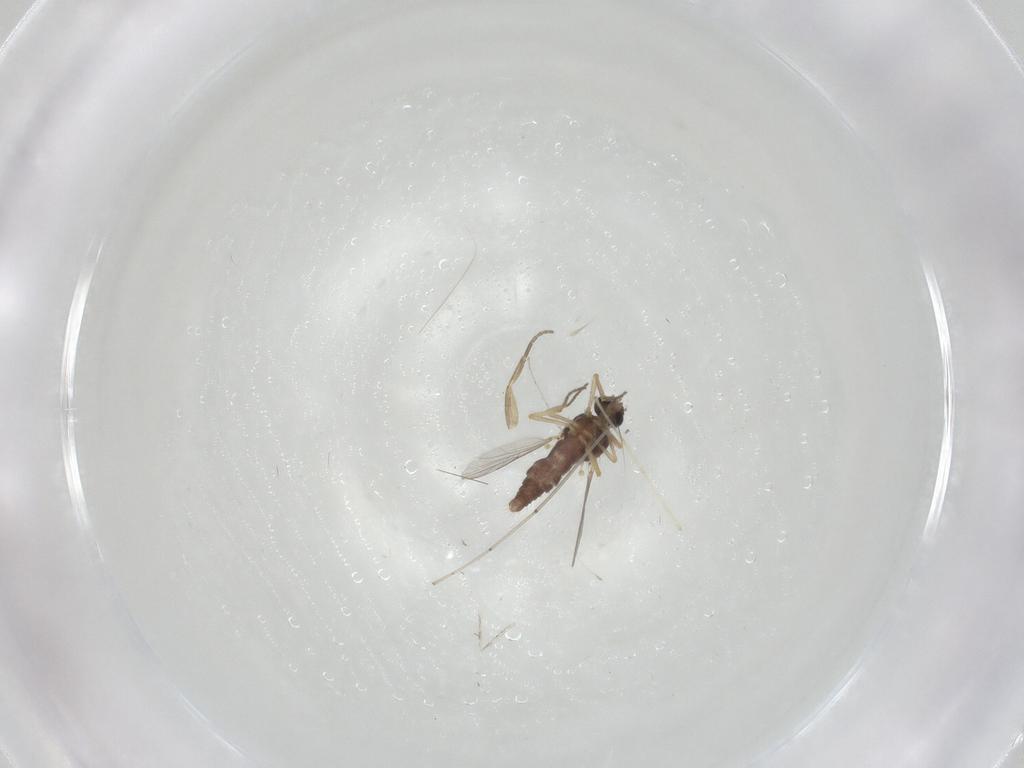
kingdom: Animalia
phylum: Arthropoda
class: Insecta
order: Diptera
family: Ceratopogonidae
